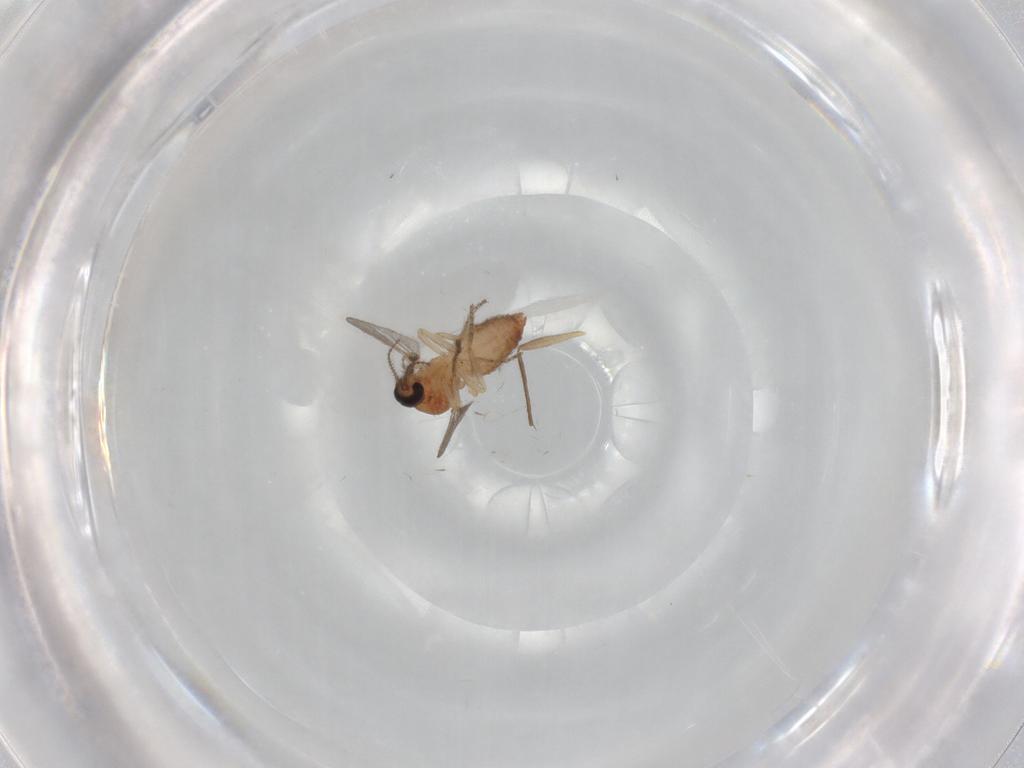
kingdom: Animalia
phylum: Arthropoda
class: Insecta
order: Diptera
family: Ceratopogonidae
